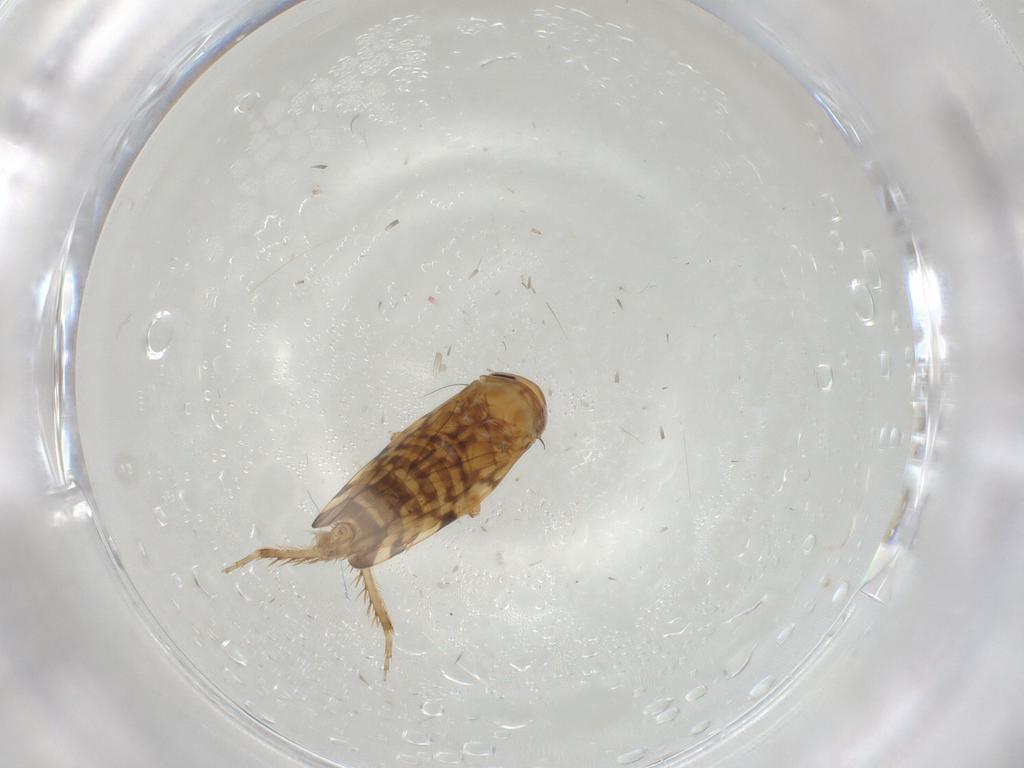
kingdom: Animalia
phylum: Arthropoda
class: Insecta
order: Hemiptera
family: Cicadellidae
